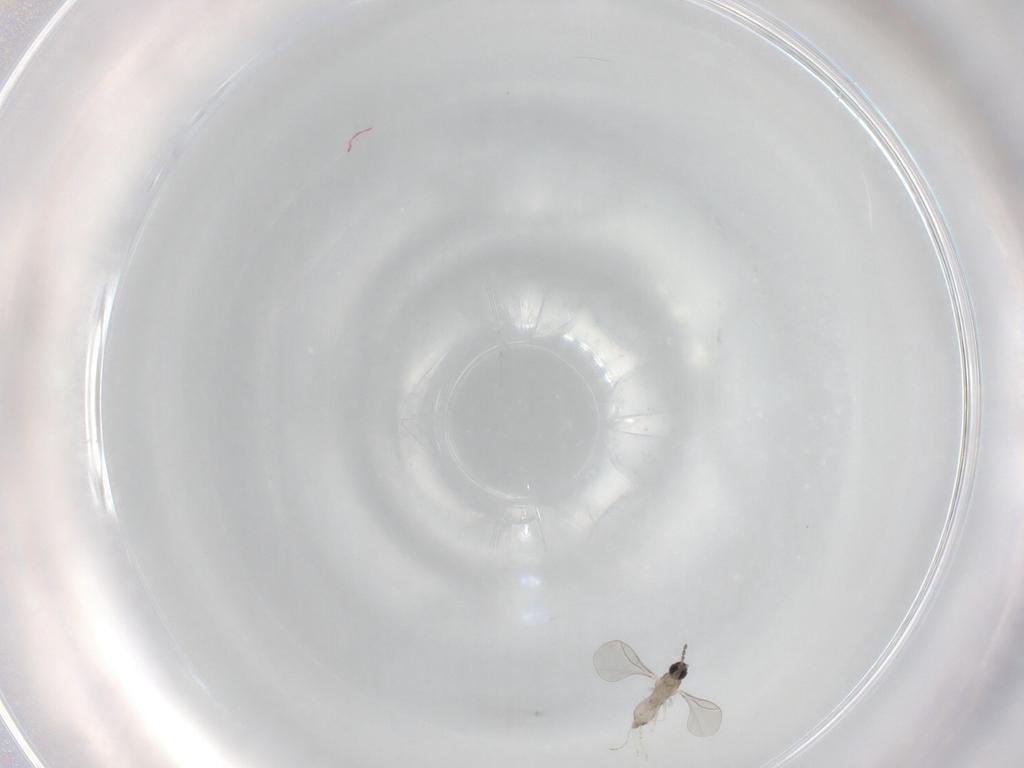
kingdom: Animalia
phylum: Arthropoda
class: Insecta
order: Diptera
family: Cecidomyiidae
